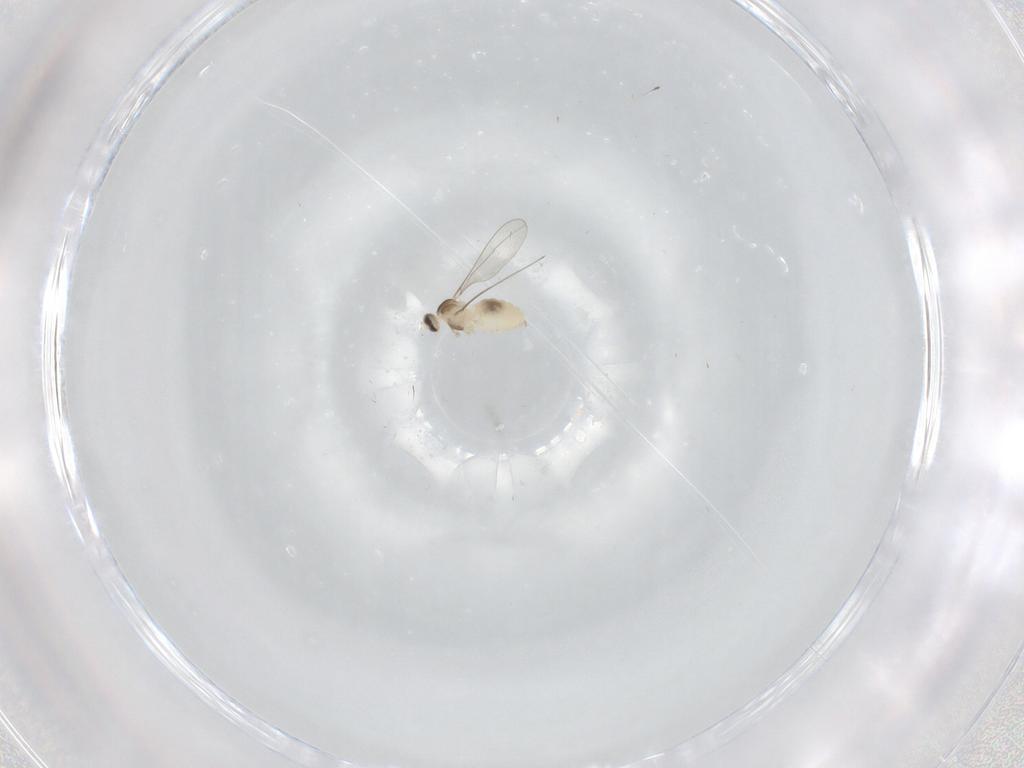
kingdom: Animalia
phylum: Arthropoda
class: Insecta
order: Diptera
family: Cecidomyiidae
